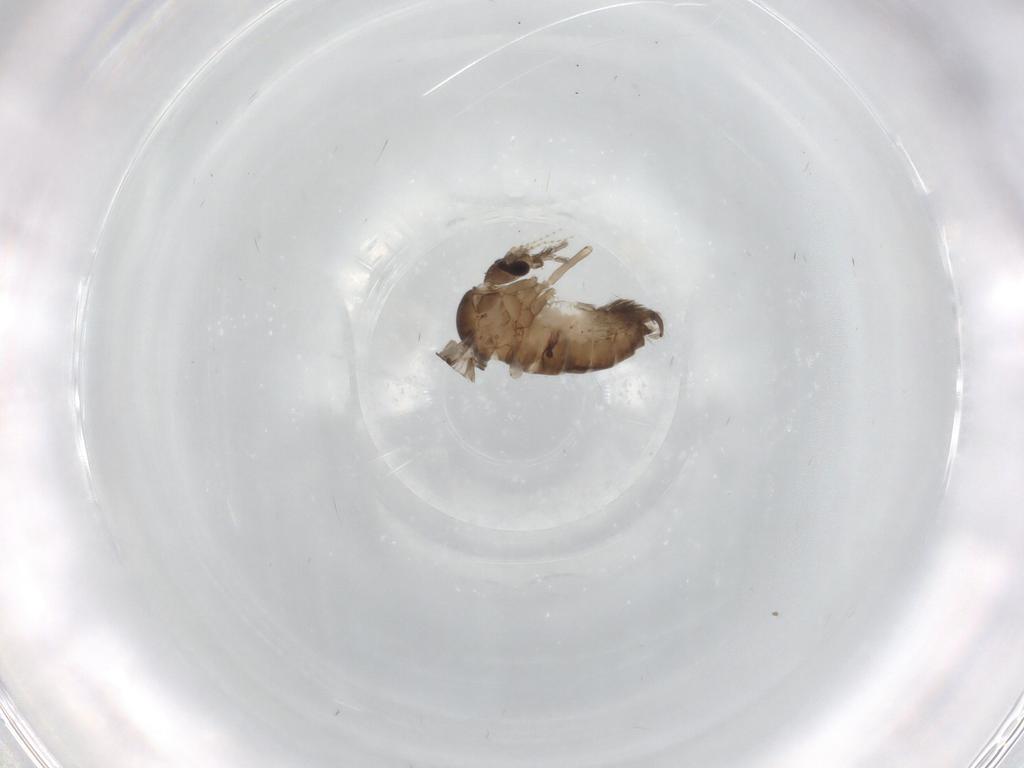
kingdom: Animalia
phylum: Arthropoda
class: Insecta
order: Diptera
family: Psychodidae
